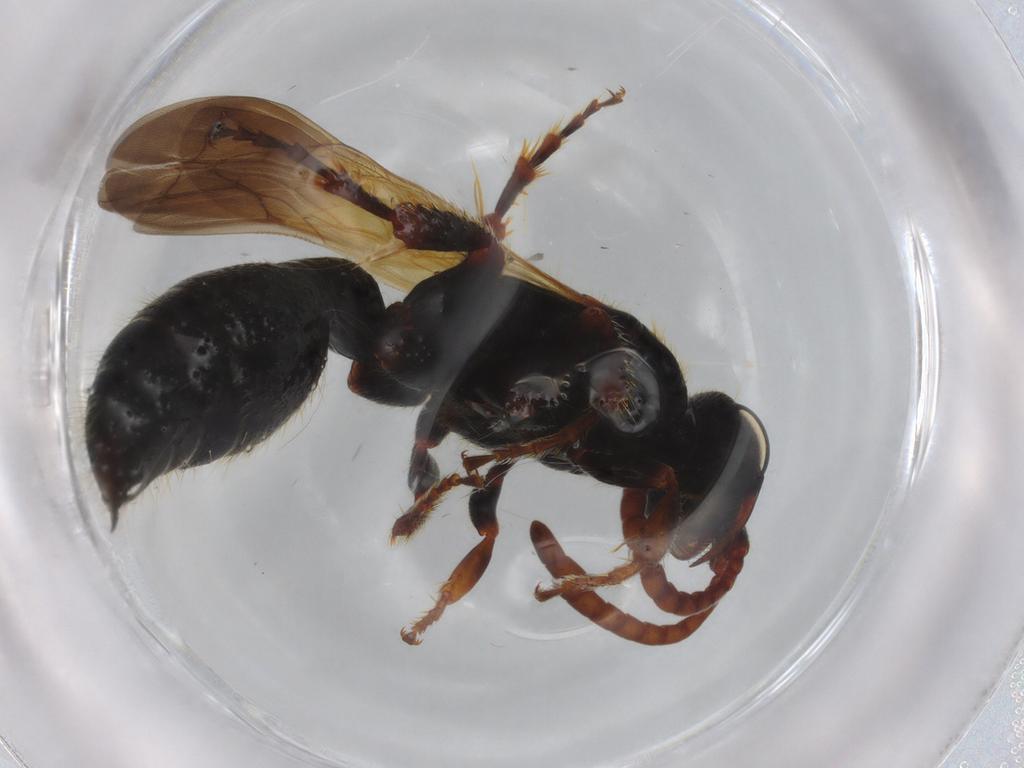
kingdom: Animalia
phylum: Arthropoda
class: Insecta
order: Hymenoptera
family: Tiphiidae
